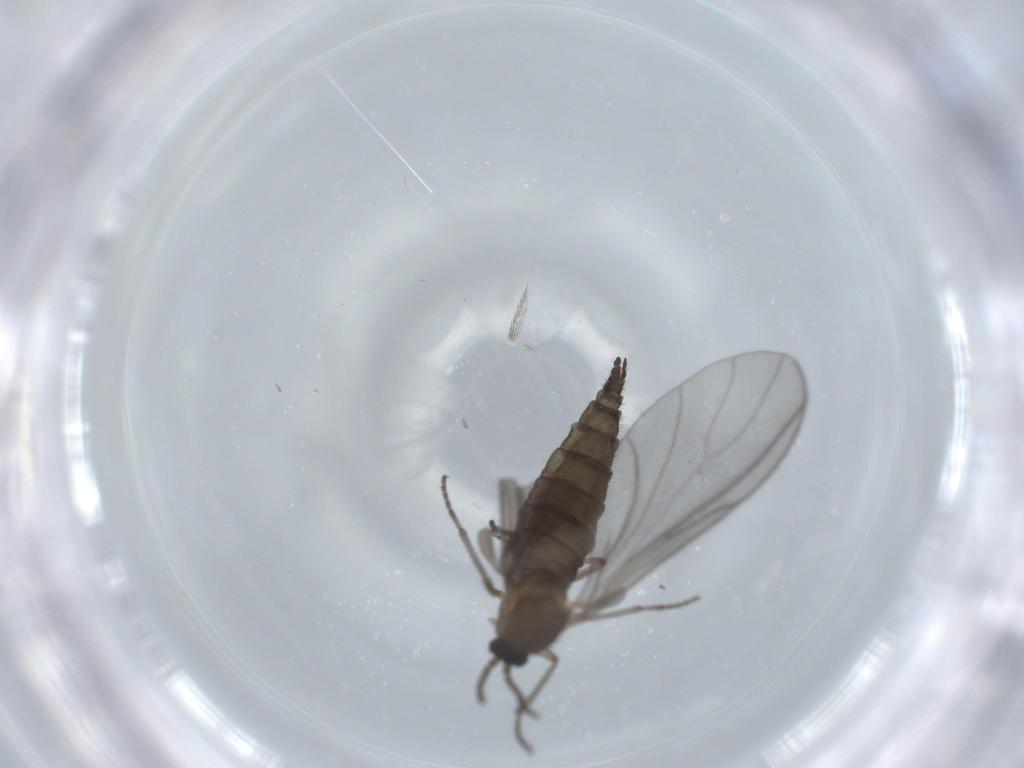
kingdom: Animalia
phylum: Arthropoda
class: Insecta
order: Diptera
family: Sciaridae
